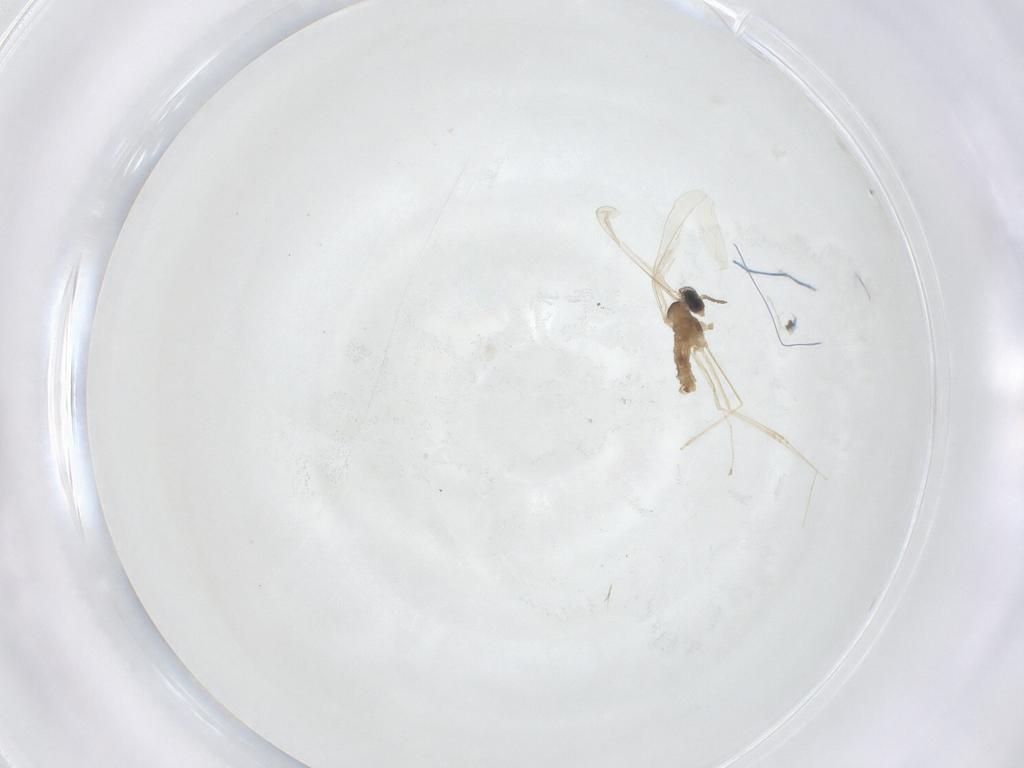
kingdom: Animalia
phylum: Arthropoda
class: Insecta
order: Diptera
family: Cecidomyiidae
